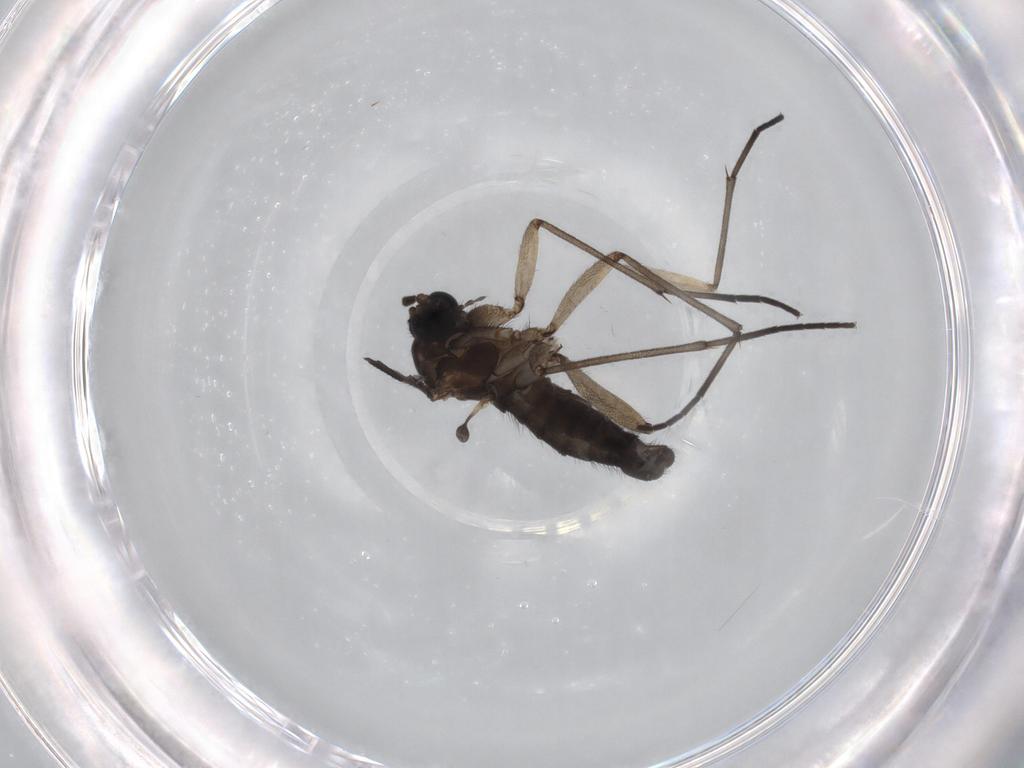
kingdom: Animalia
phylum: Arthropoda
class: Insecta
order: Diptera
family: Sciaridae
